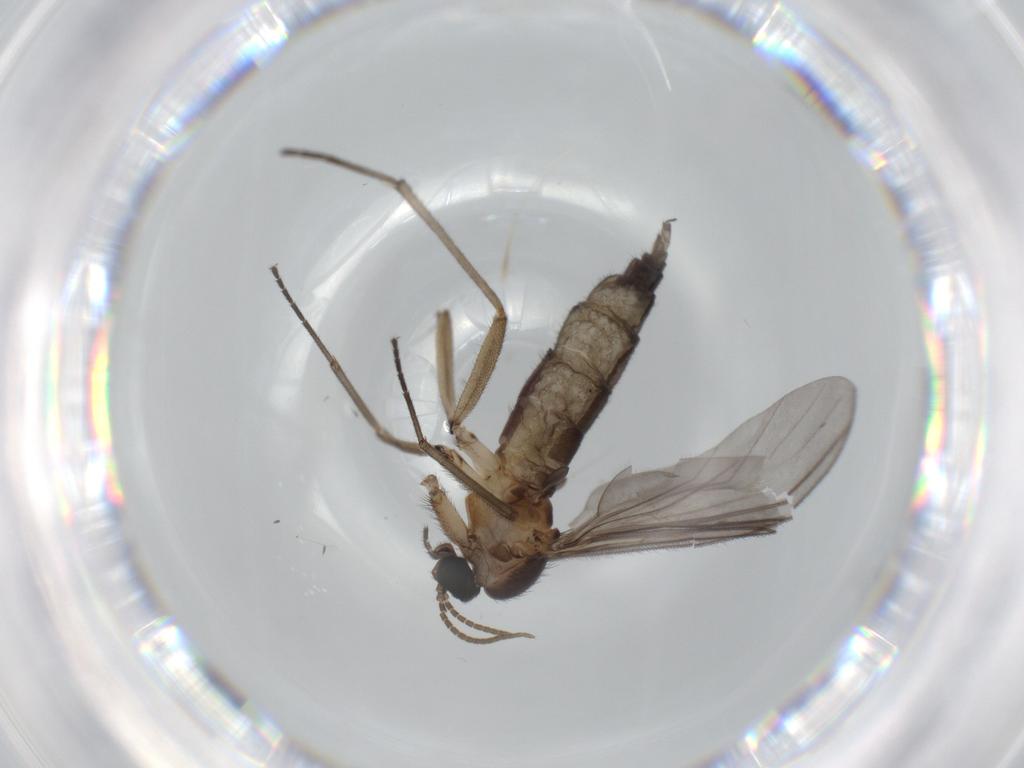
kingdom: Animalia
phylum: Arthropoda
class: Insecta
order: Diptera
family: Sciaridae
